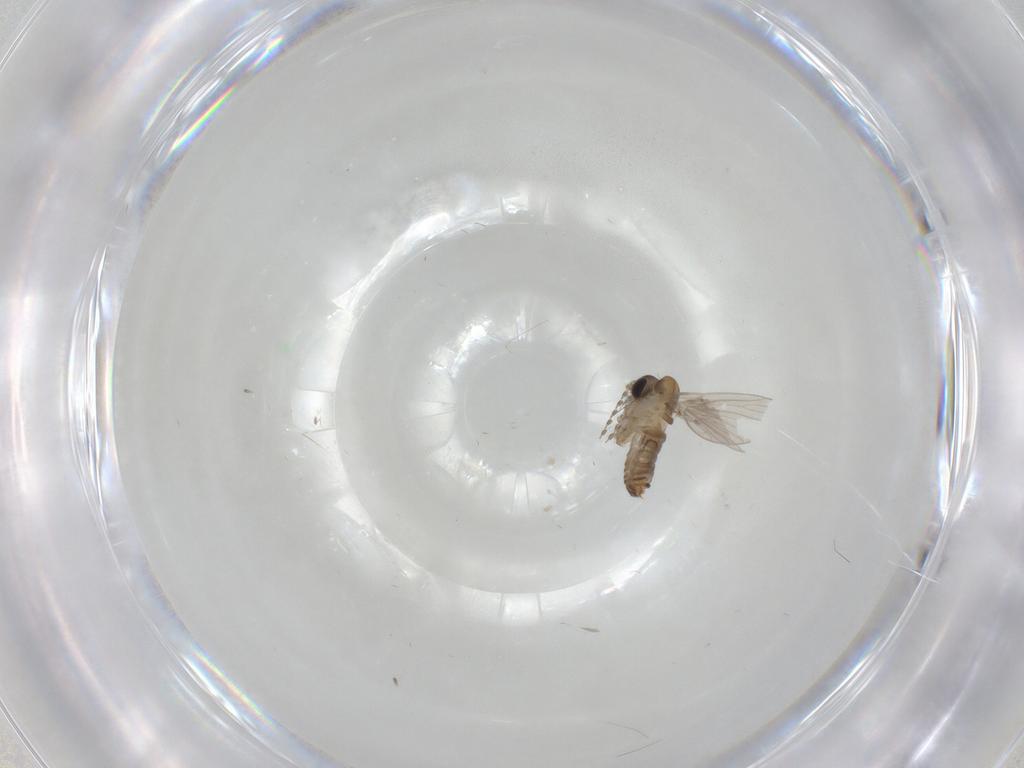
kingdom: Animalia
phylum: Arthropoda
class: Insecta
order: Diptera
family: Psychodidae
